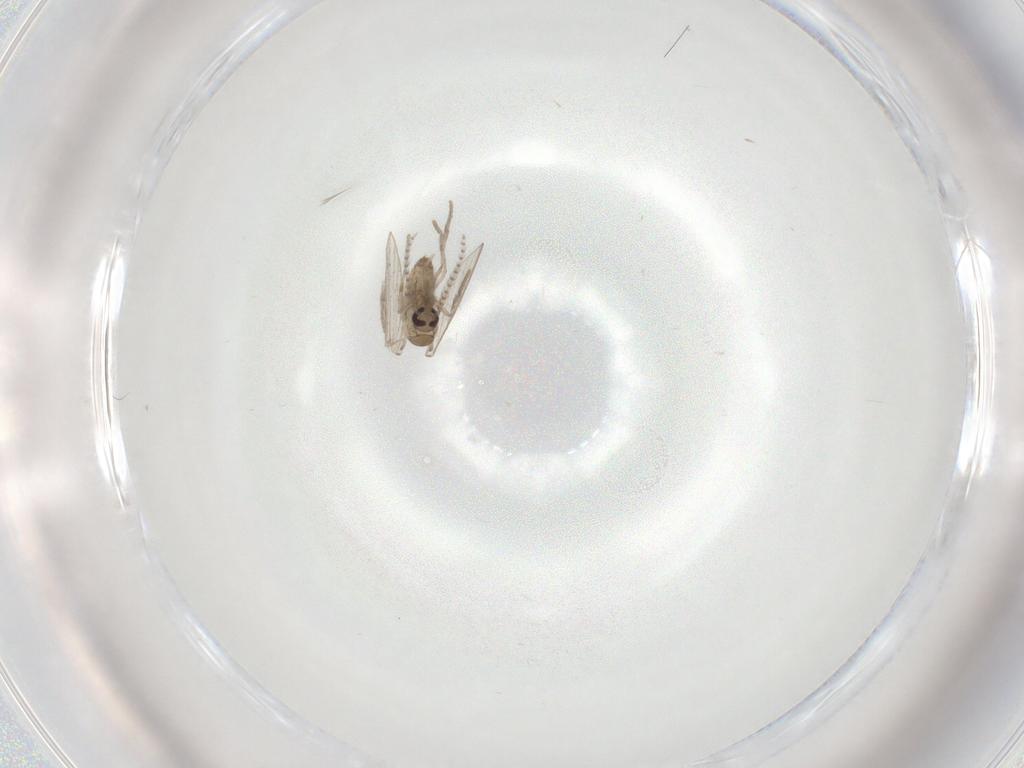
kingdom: Animalia
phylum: Arthropoda
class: Insecta
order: Diptera
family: Psychodidae
